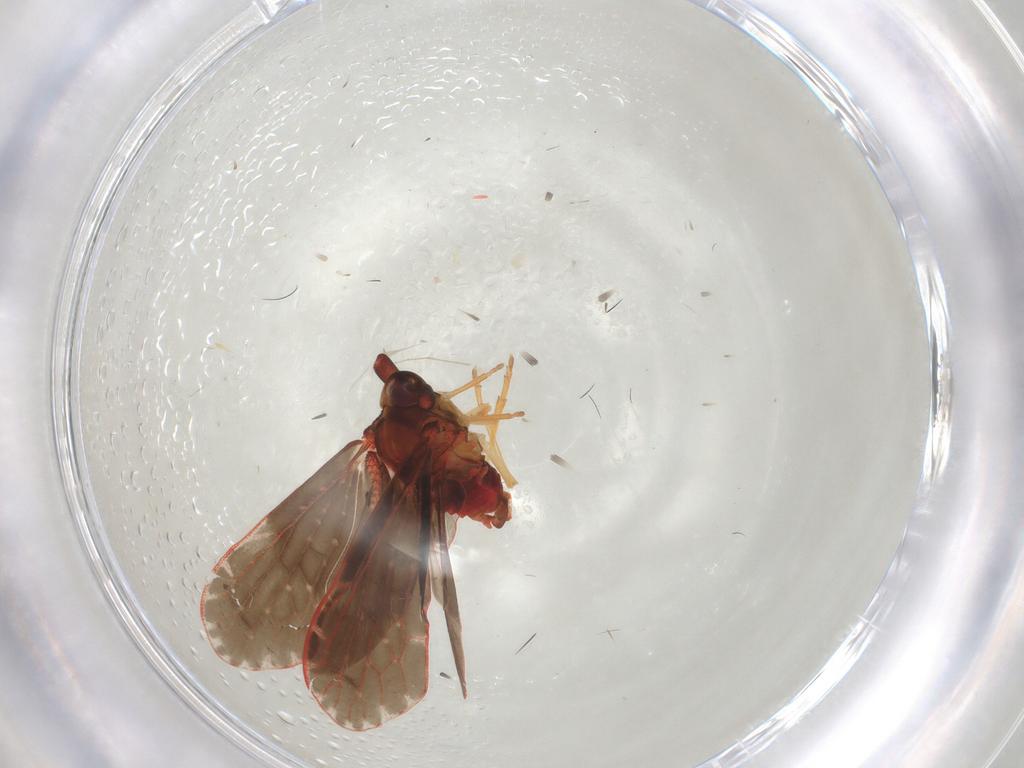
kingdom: Animalia
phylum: Arthropoda
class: Insecta
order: Hemiptera
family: Derbidae
